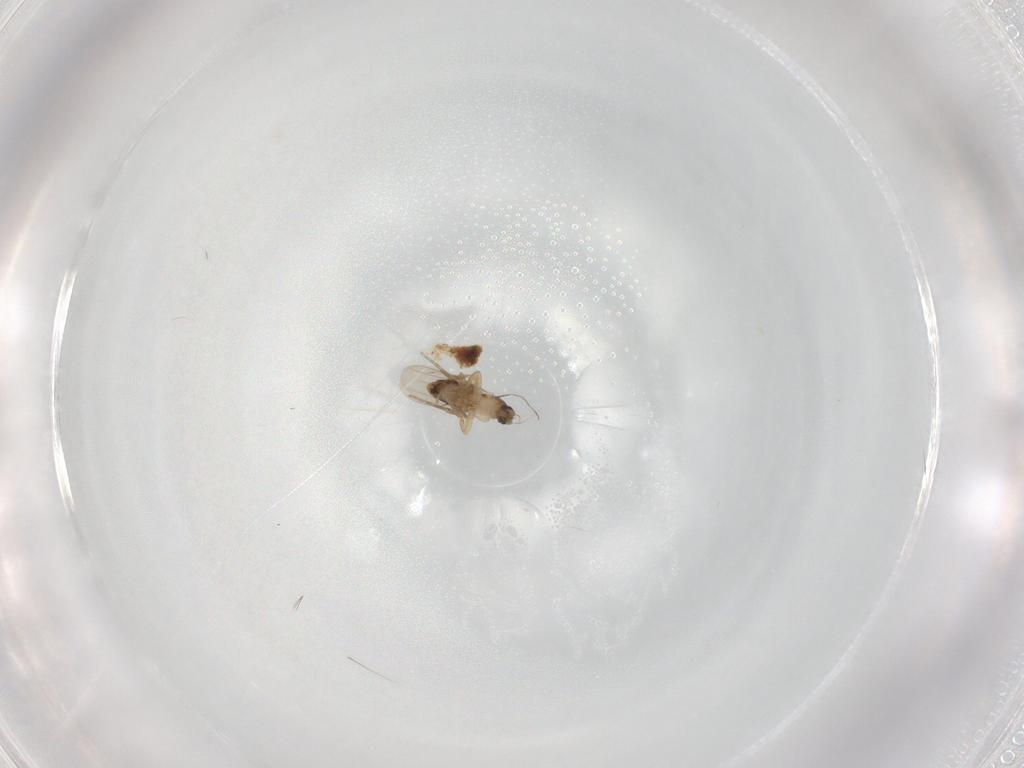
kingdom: Animalia
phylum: Arthropoda
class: Insecta
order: Diptera
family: Phoridae
